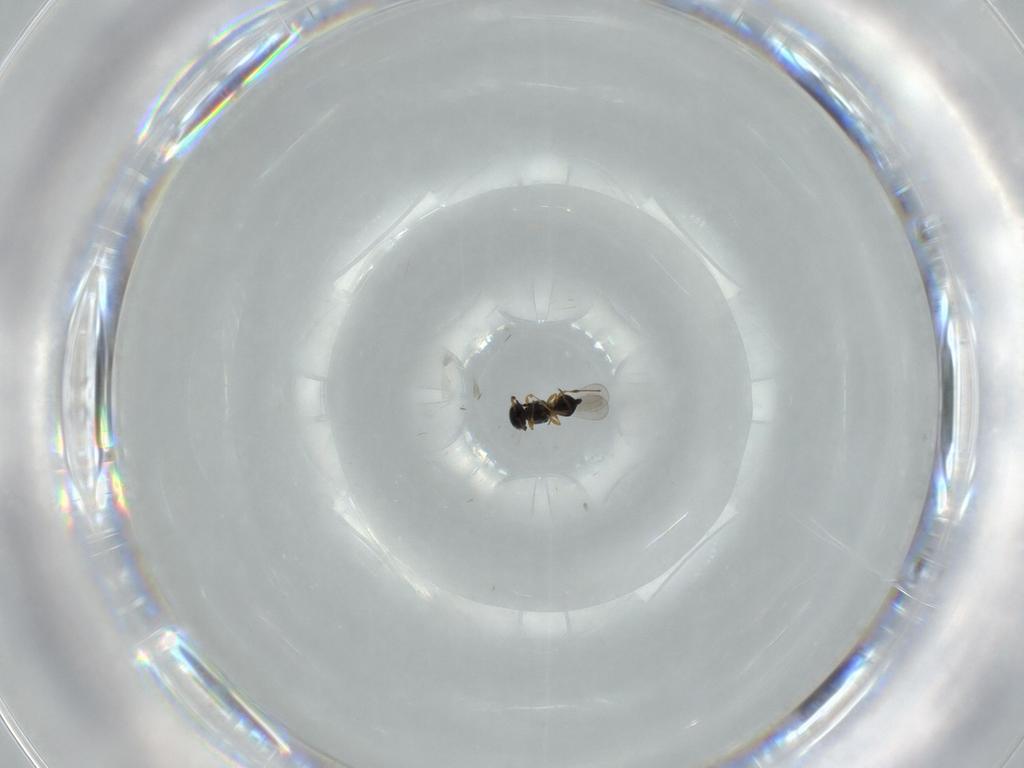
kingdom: Animalia
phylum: Arthropoda
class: Insecta
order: Hymenoptera
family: Platygastridae
